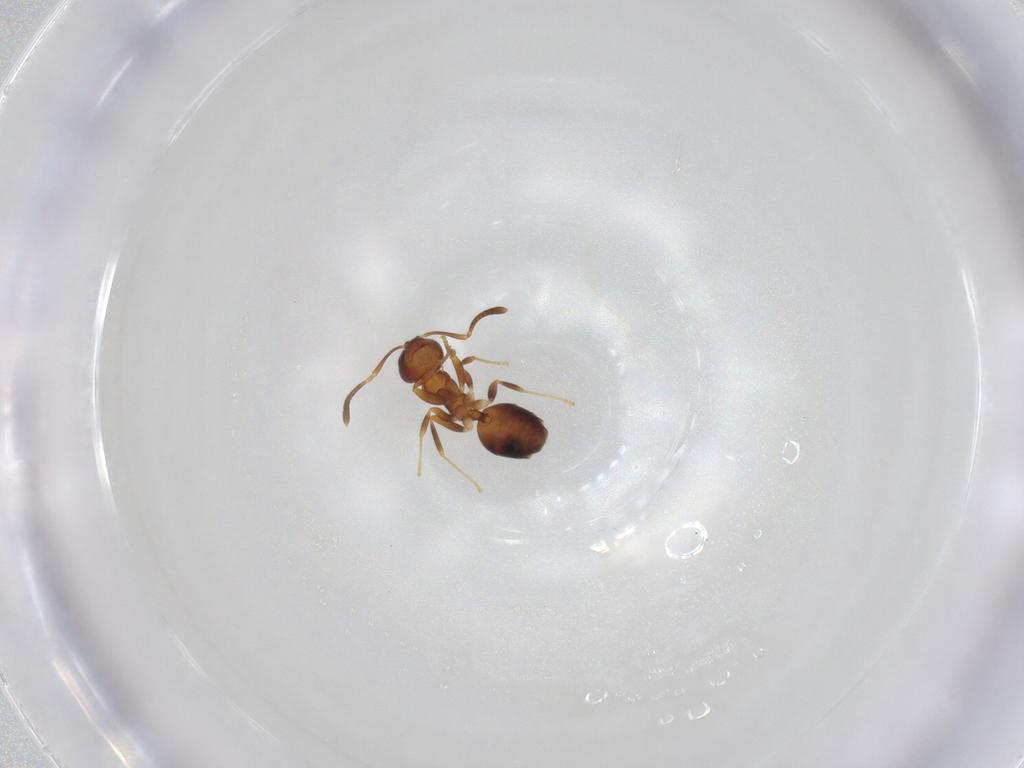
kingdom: Animalia
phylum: Arthropoda
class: Insecta
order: Hymenoptera
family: Formicidae
